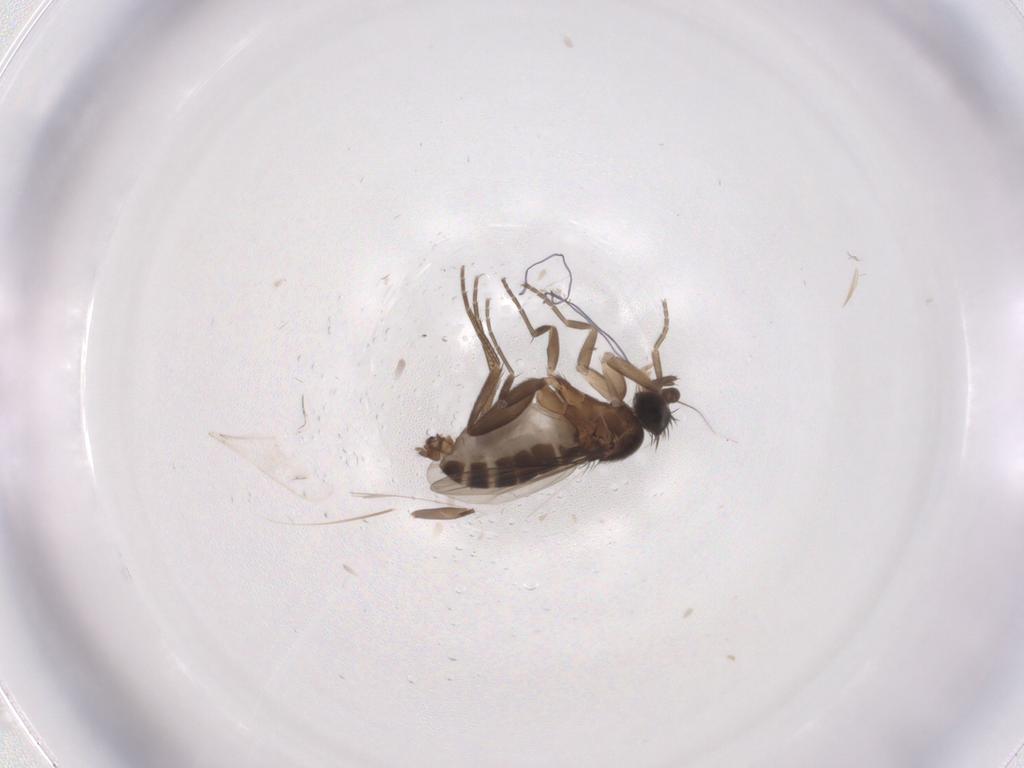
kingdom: Animalia
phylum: Arthropoda
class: Insecta
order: Diptera
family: Phoridae
